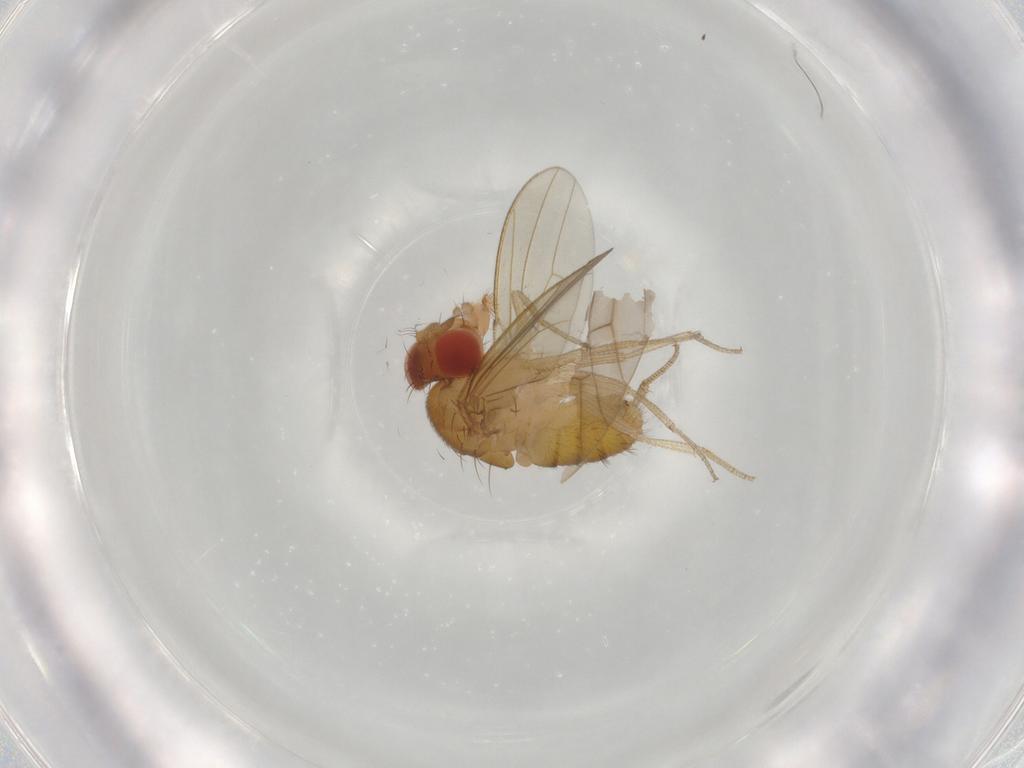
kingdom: Animalia
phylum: Arthropoda
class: Insecta
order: Diptera
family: Drosophilidae
